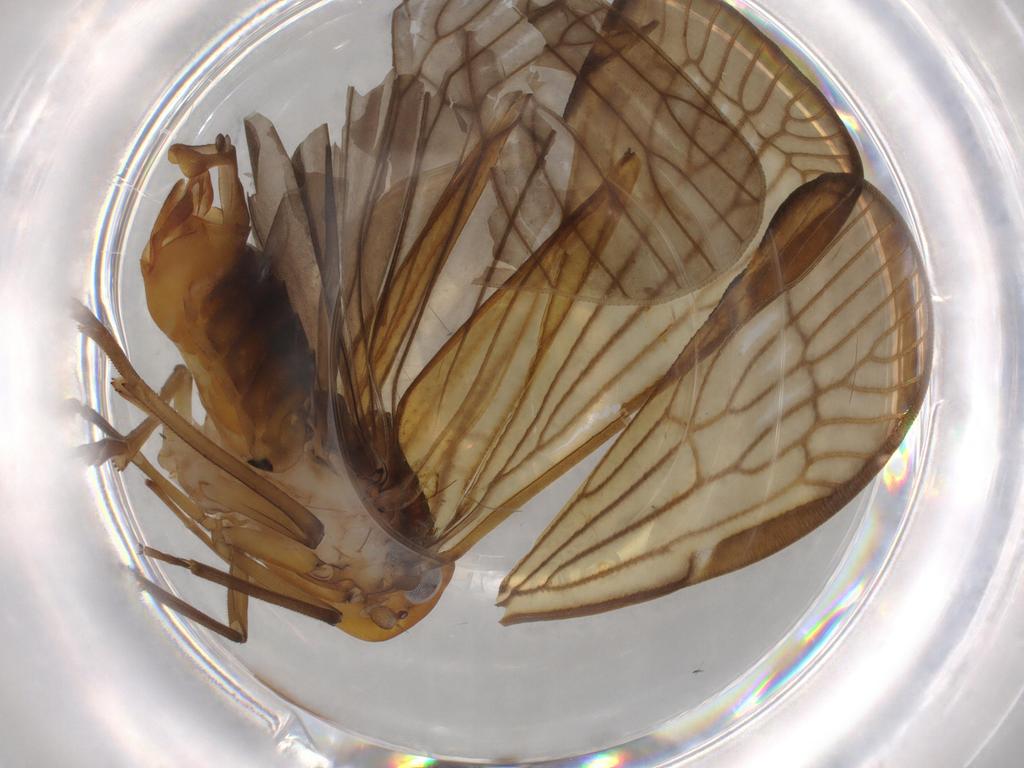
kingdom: Animalia
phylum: Arthropoda
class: Insecta
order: Hemiptera
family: Cixiidae
